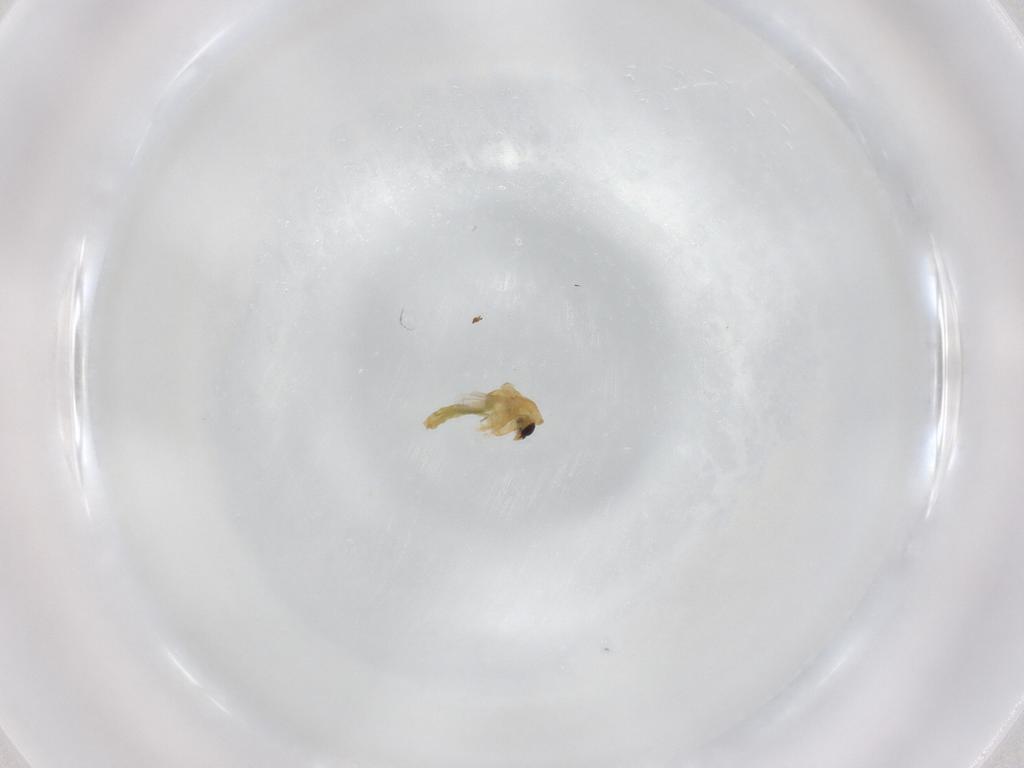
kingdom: Animalia
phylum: Arthropoda
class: Insecta
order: Diptera
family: Chironomidae
